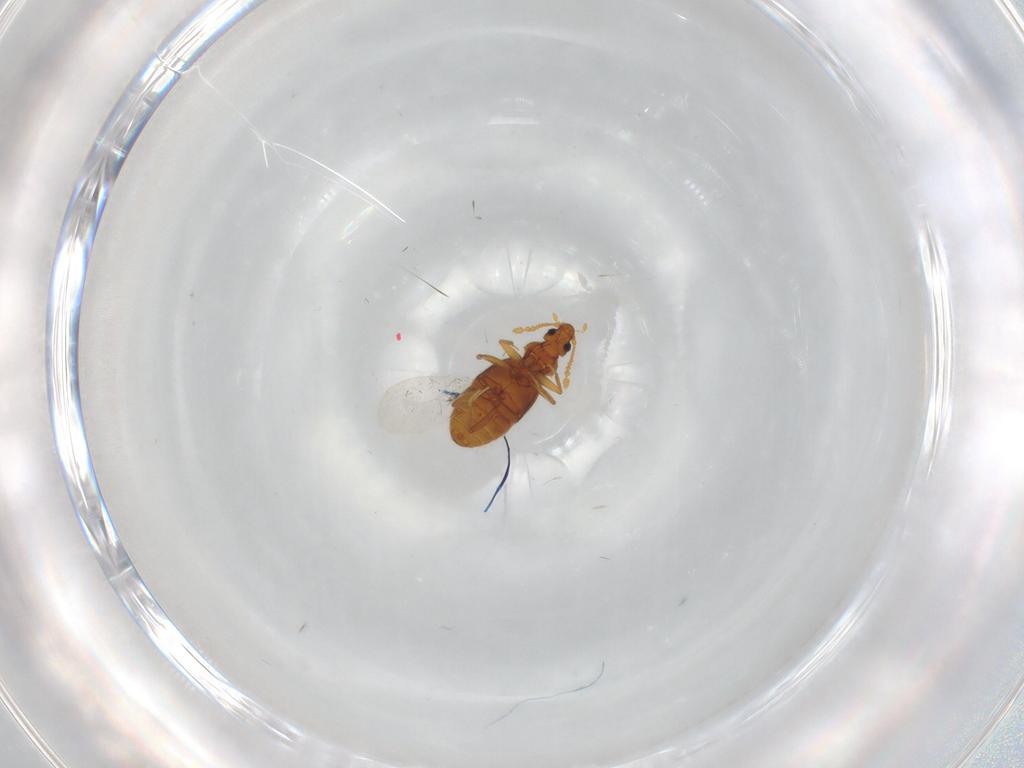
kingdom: Animalia
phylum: Arthropoda
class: Insecta
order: Coleoptera
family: Staphylinidae
